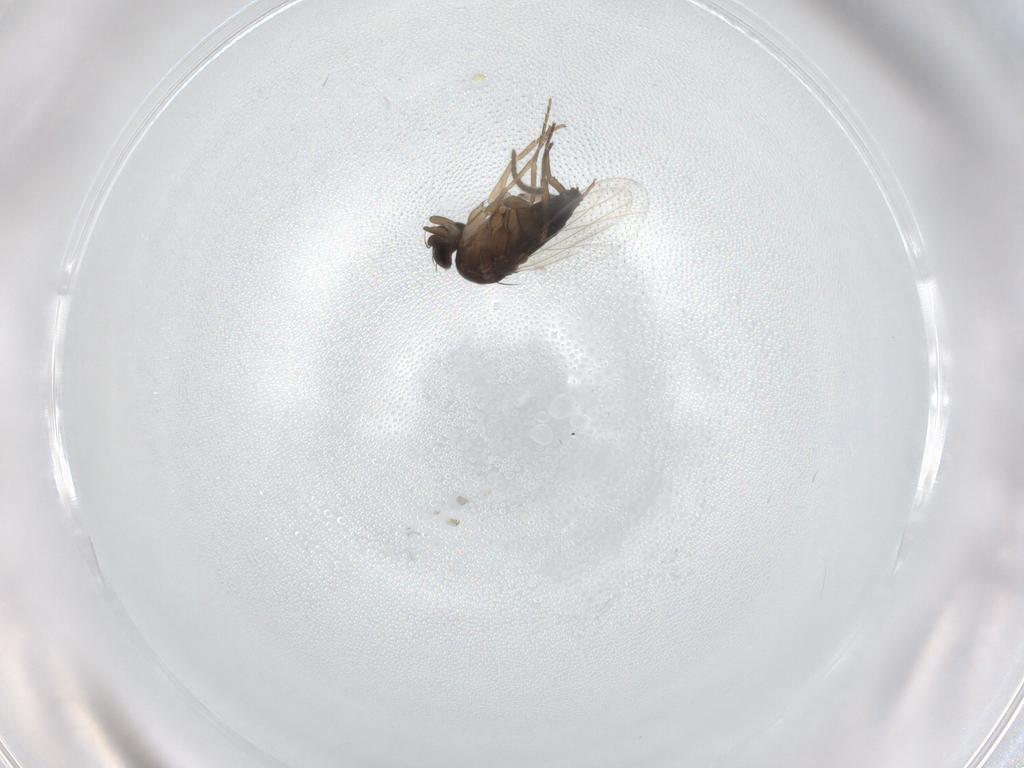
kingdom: Animalia
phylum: Arthropoda
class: Insecta
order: Diptera
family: Phoridae
